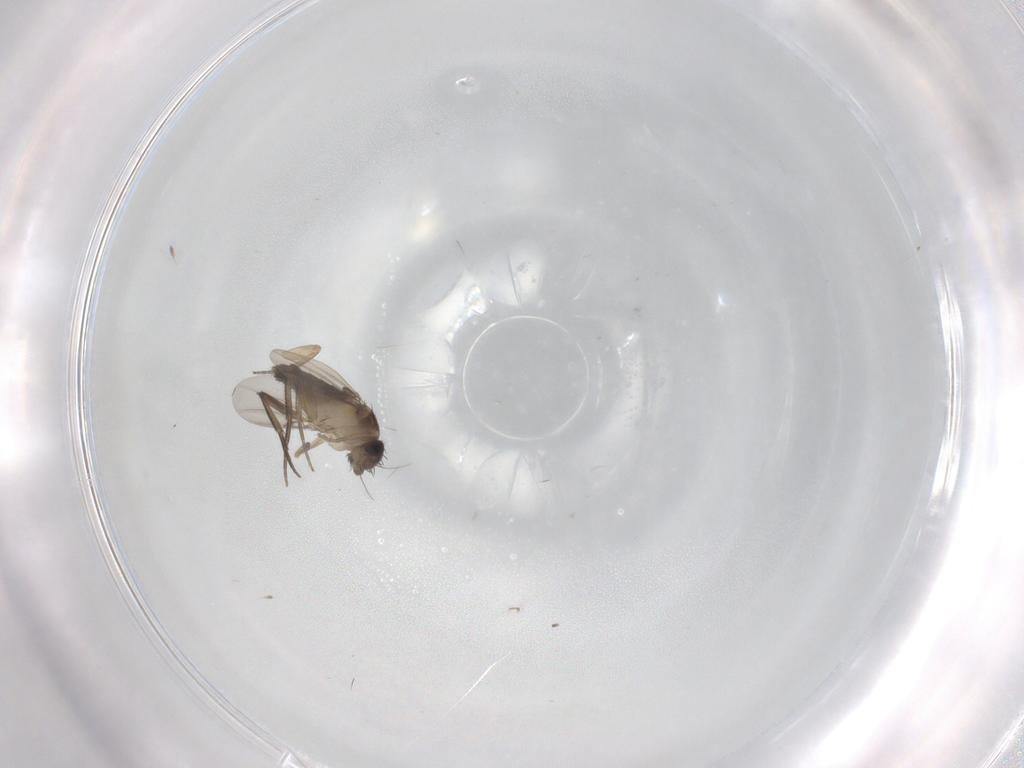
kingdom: Animalia
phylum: Arthropoda
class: Insecta
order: Diptera
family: Phoridae
